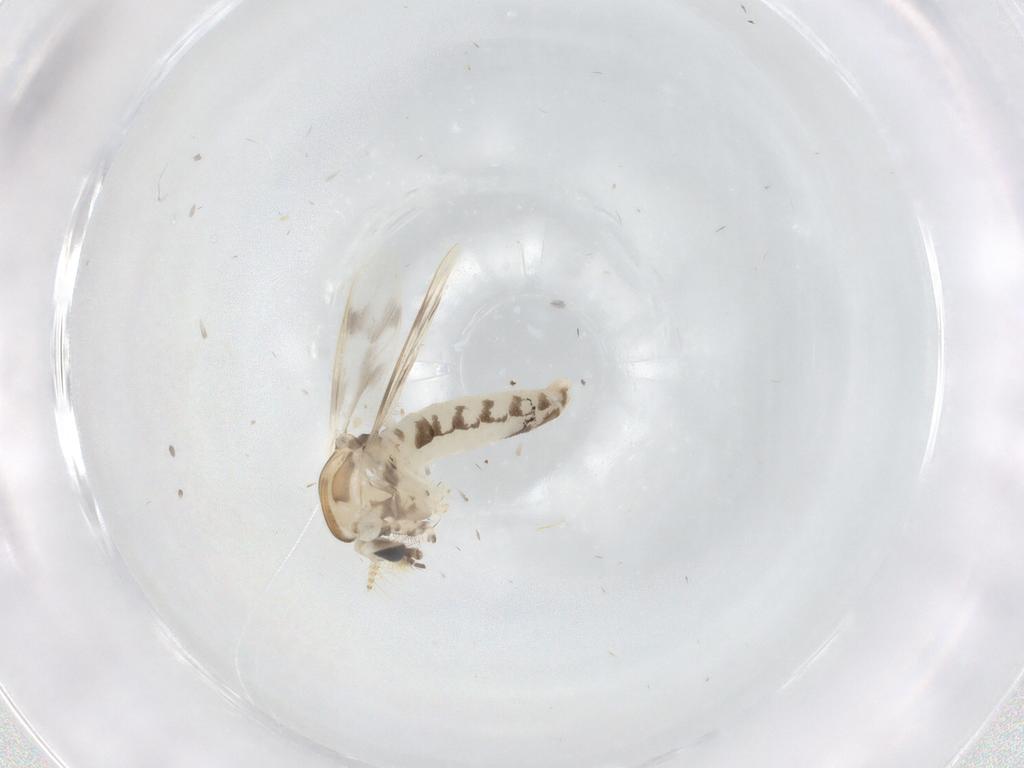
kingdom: Animalia
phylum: Arthropoda
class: Insecta
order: Diptera
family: Corethrellidae
